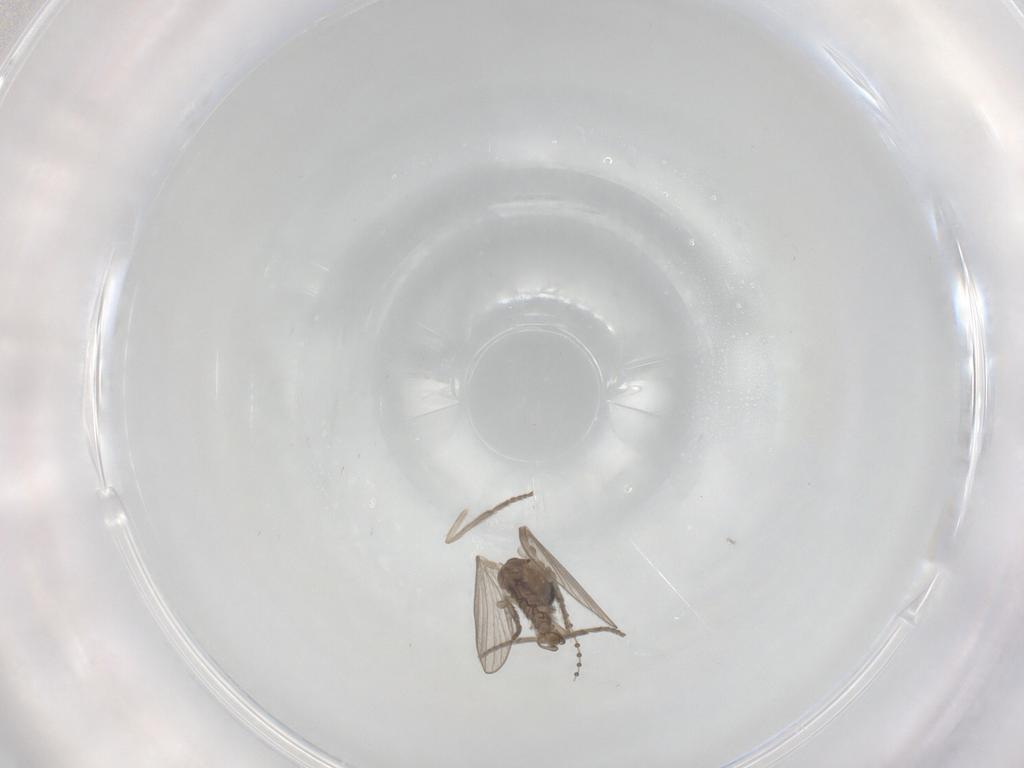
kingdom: Animalia
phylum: Arthropoda
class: Insecta
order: Diptera
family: Psychodidae
